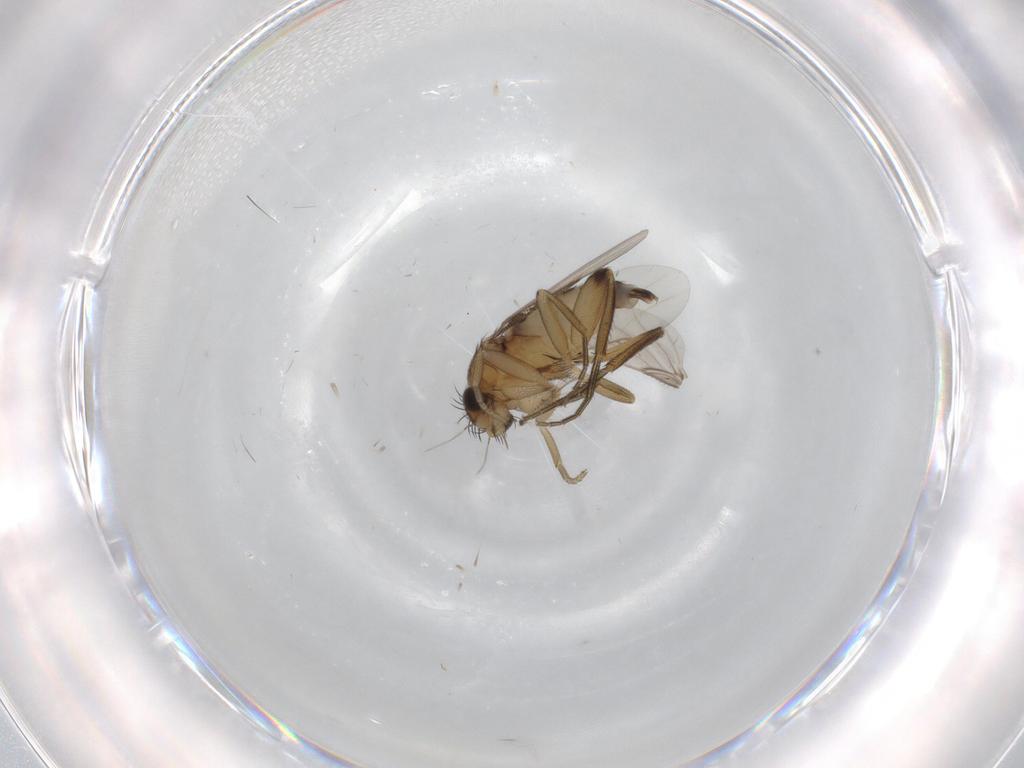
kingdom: Animalia
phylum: Arthropoda
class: Insecta
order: Diptera
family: Phoridae
